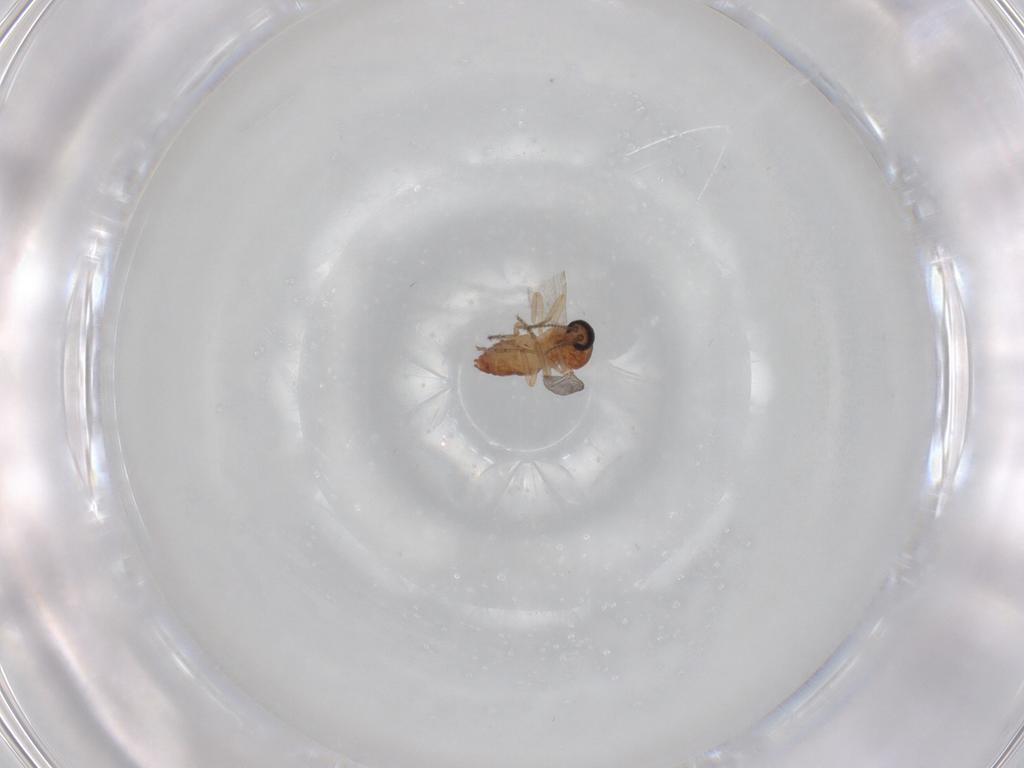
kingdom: Animalia
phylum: Arthropoda
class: Insecta
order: Diptera
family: Ceratopogonidae
